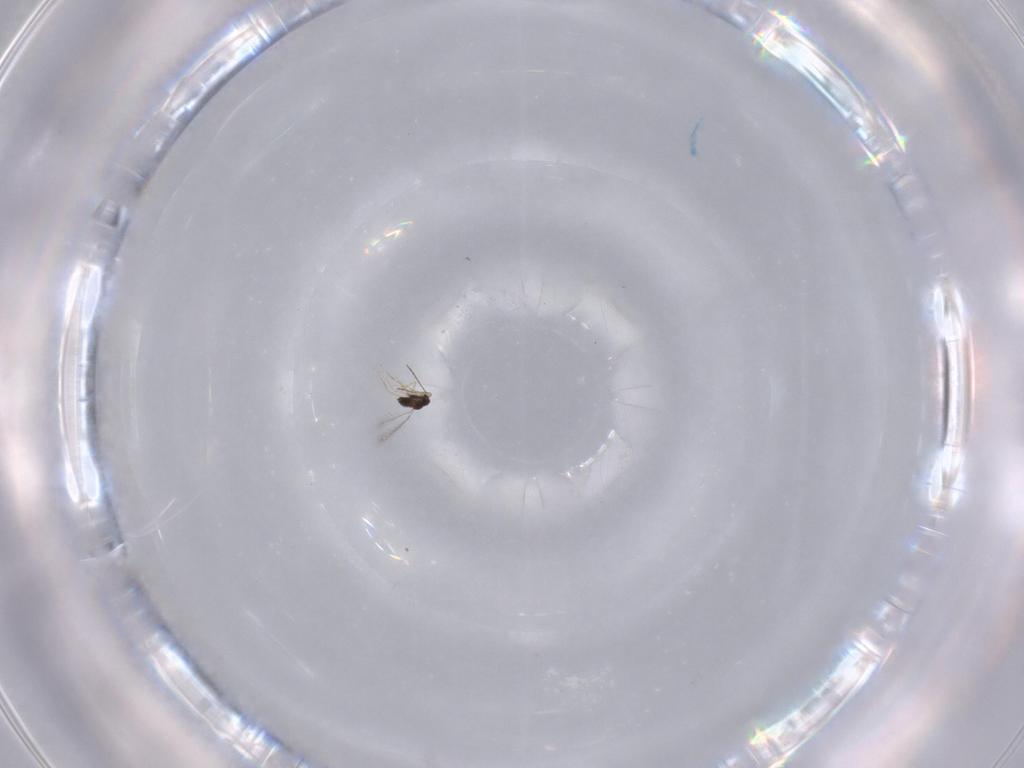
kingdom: Animalia
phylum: Arthropoda
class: Insecta
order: Hymenoptera
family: Mymaridae
